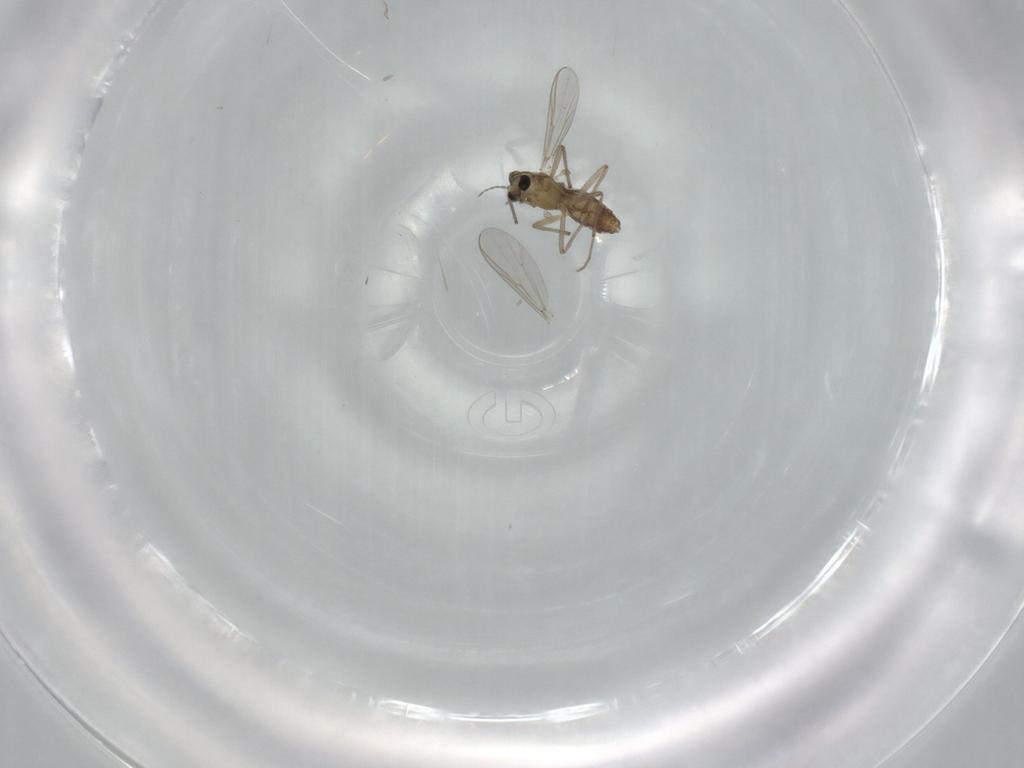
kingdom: Animalia
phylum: Arthropoda
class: Insecta
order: Diptera
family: Chironomidae
